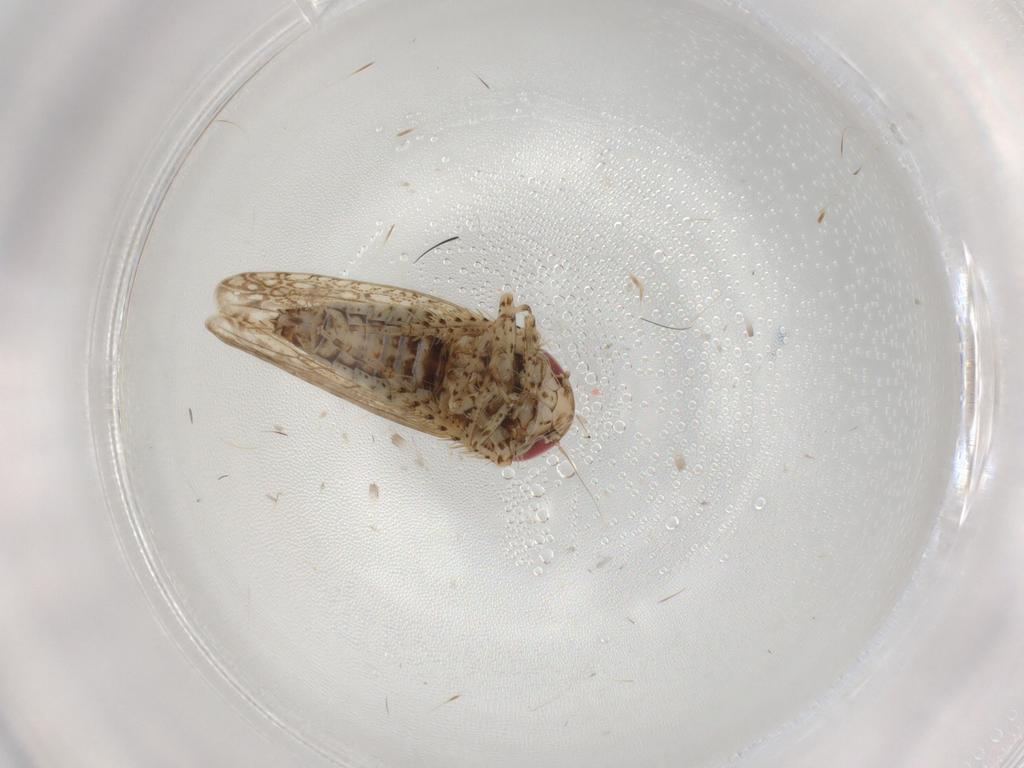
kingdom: Animalia
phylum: Arthropoda
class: Insecta
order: Hemiptera
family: Cicadellidae
